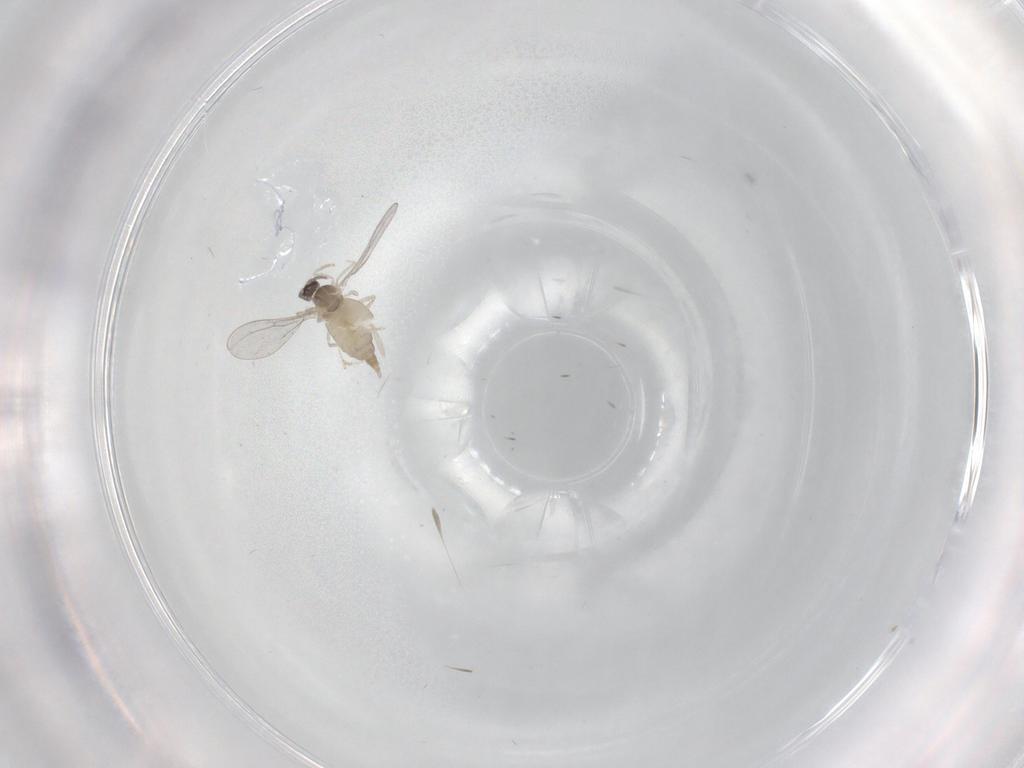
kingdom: Animalia
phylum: Arthropoda
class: Insecta
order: Diptera
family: Cecidomyiidae
